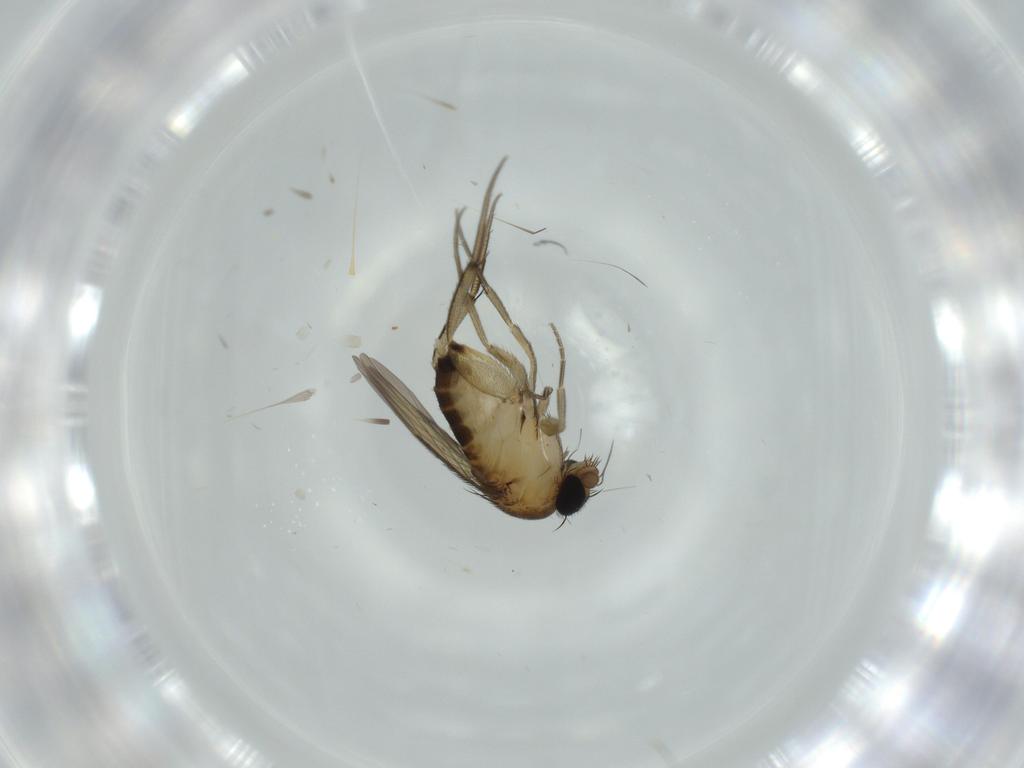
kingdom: Animalia
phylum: Arthropoda
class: Insecta
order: Diptera
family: Phoridae
